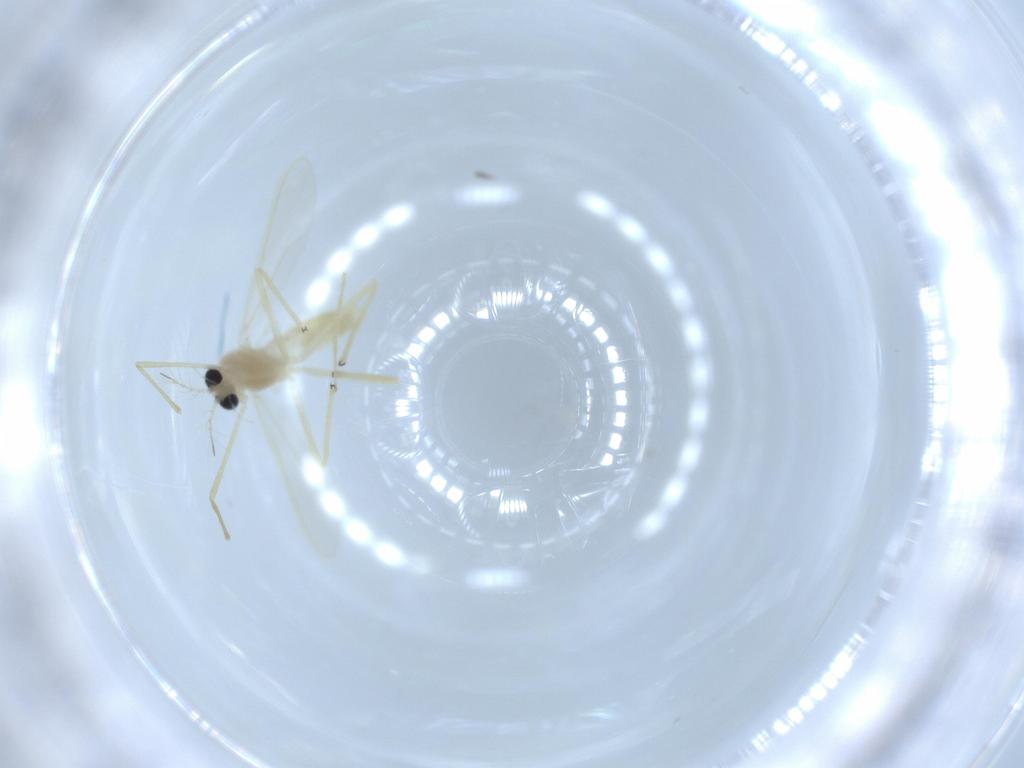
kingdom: Animalia
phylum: Arthropoda
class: Insecta
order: Diptera
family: Chironomidae
